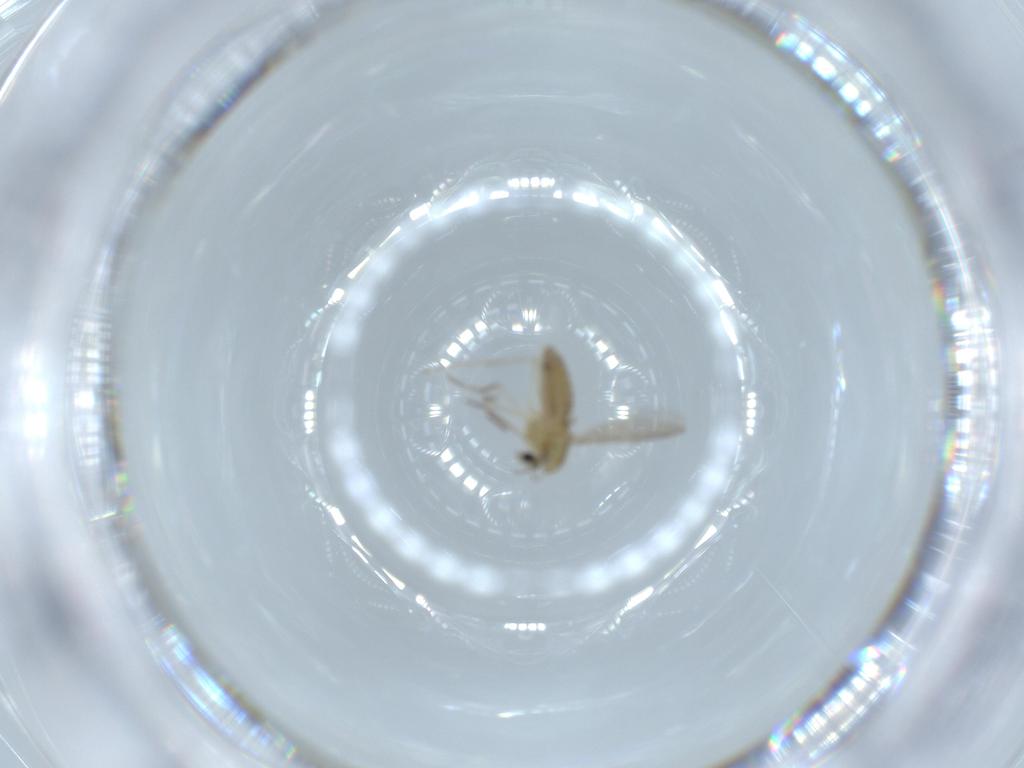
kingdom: Animalia
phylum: Arthropoda
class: Insecta
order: Diptera
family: Chironomidae
